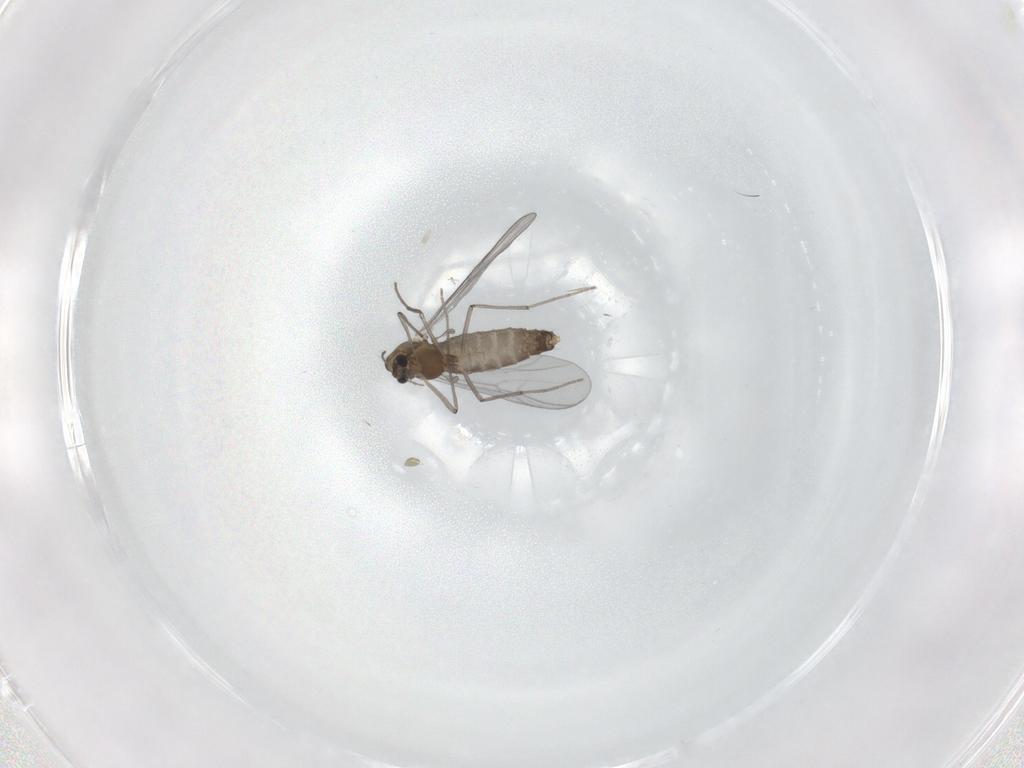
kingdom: Animalia
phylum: Arthropoda
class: Insecta
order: Diptera
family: Chironomidae
